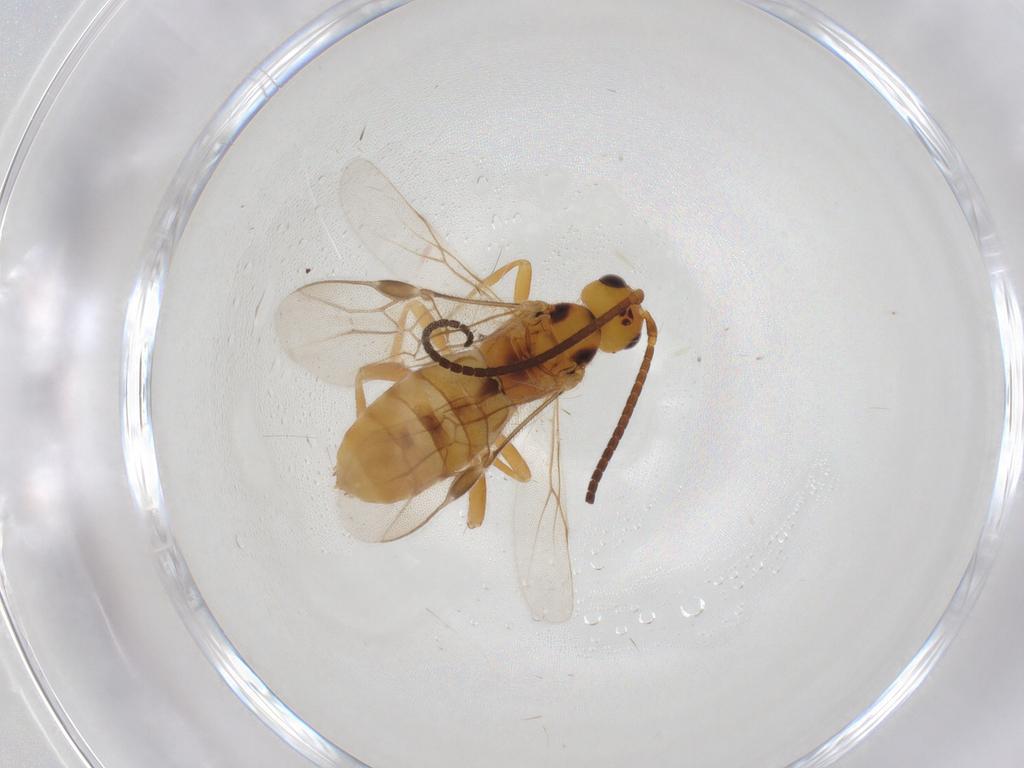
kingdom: Animalia
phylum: Arthropoda
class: Insecta
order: Hymenoptera
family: Braconidae
